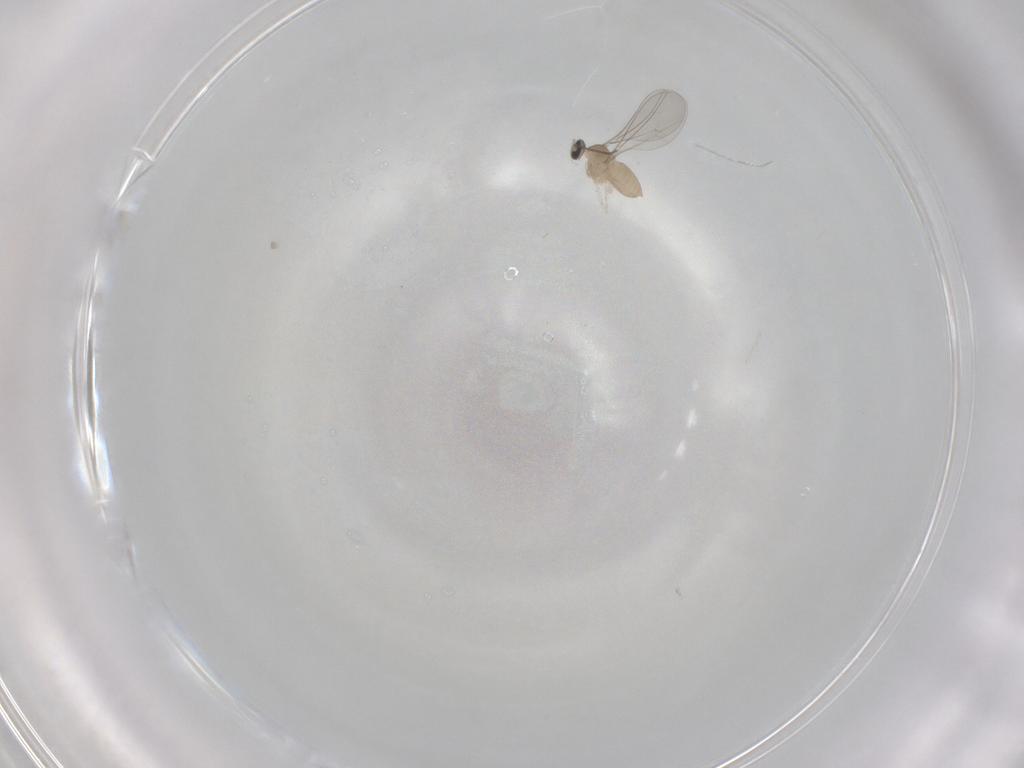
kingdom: Animalia
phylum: Arthropoda
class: Insecta
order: Diptera
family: Cecidomyiidae
